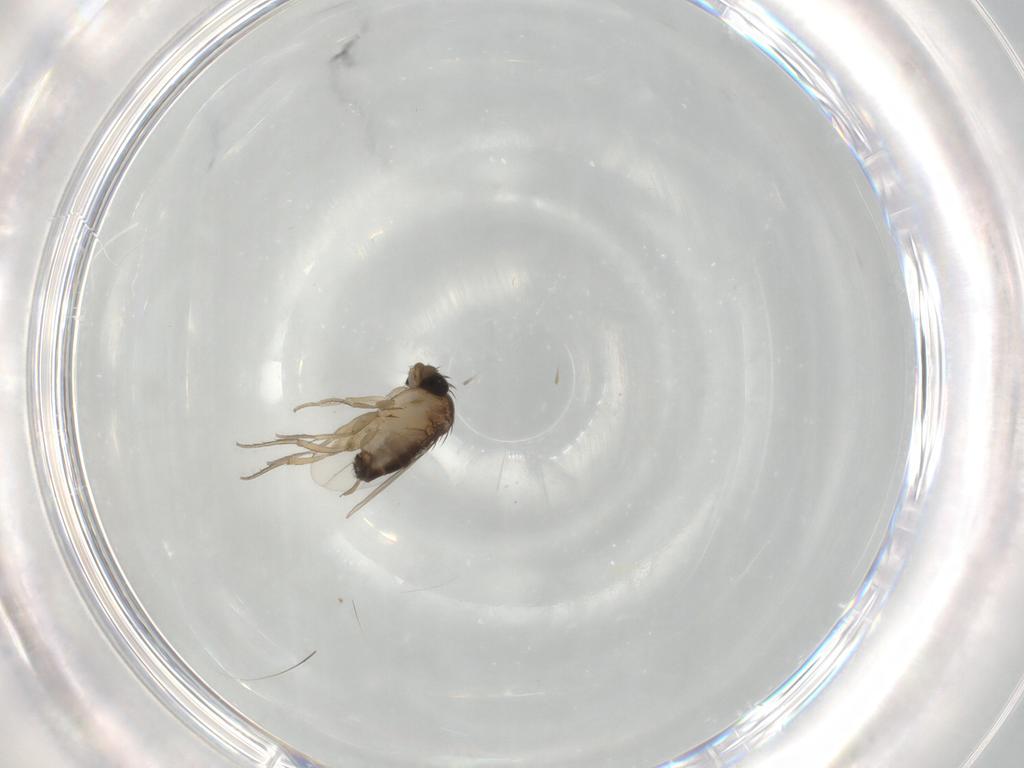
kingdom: Animalia
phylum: Arthropoda
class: Insecta
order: Diptera
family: Phoridae
